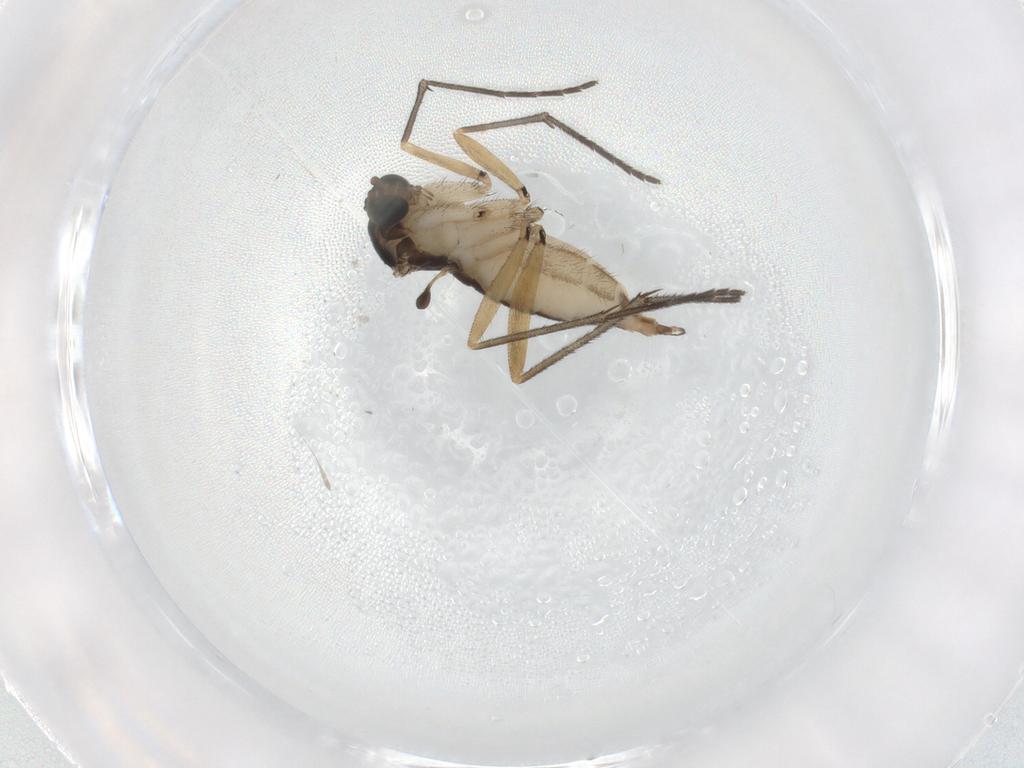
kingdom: Animalia
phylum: Arthropoda
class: Insecta
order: Diptera
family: Sciaridae
